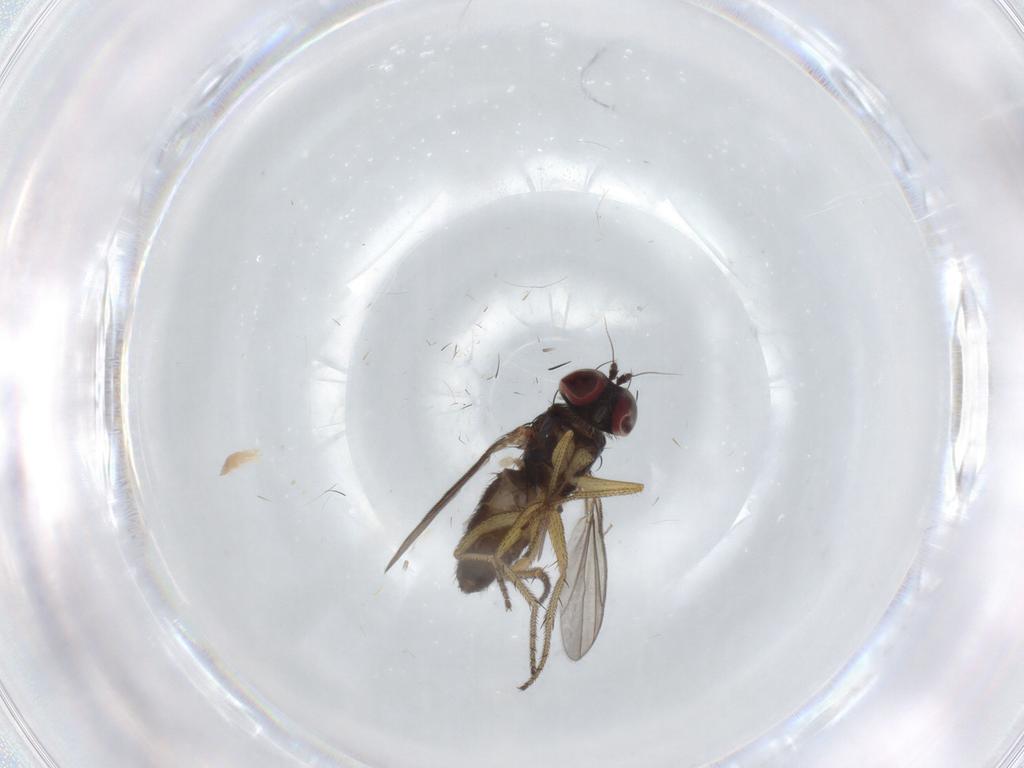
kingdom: Animalia
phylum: Arthropoda
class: Insecta
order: Diptera
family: Dolichopodidae
